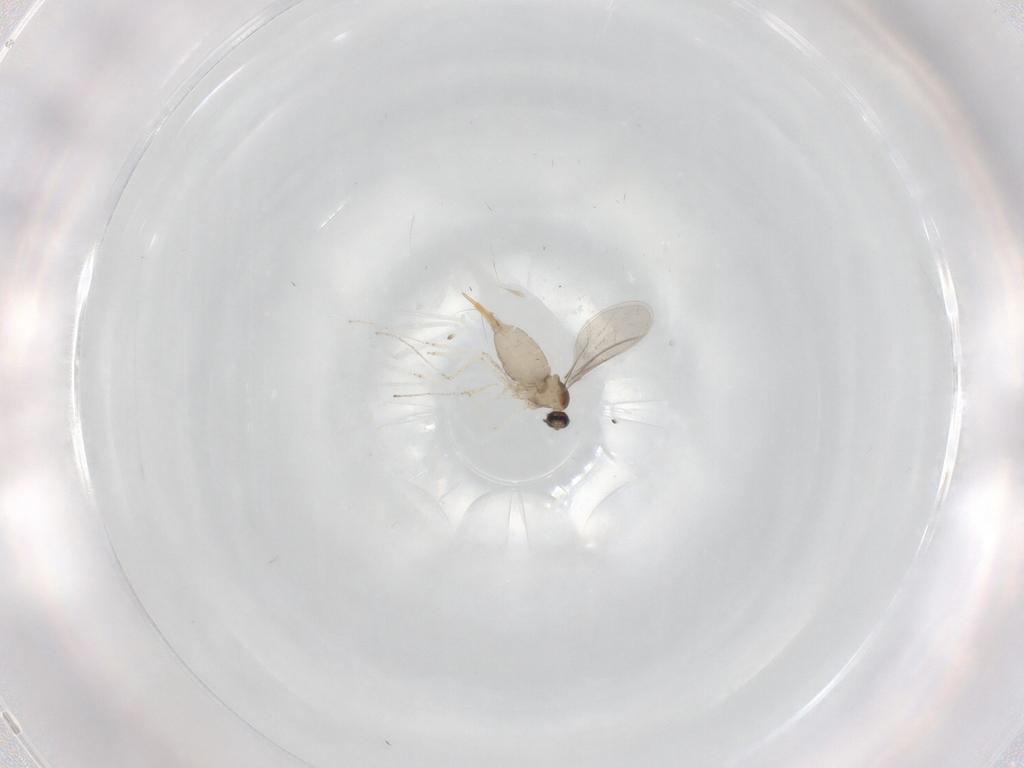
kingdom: Animalia
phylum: Arthropoda
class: Insecta
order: Diptera
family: Cecidomyiidae
